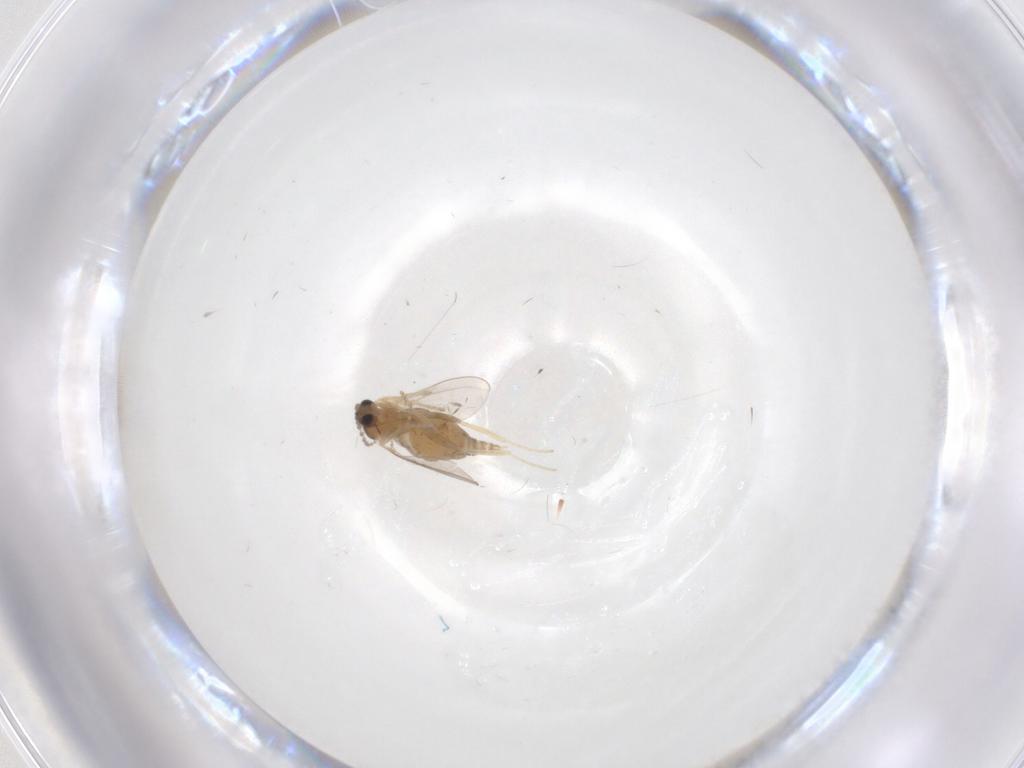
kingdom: Animalia
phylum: Arthropoda
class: Insecta
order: Diptera
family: Cecidomyiidae
